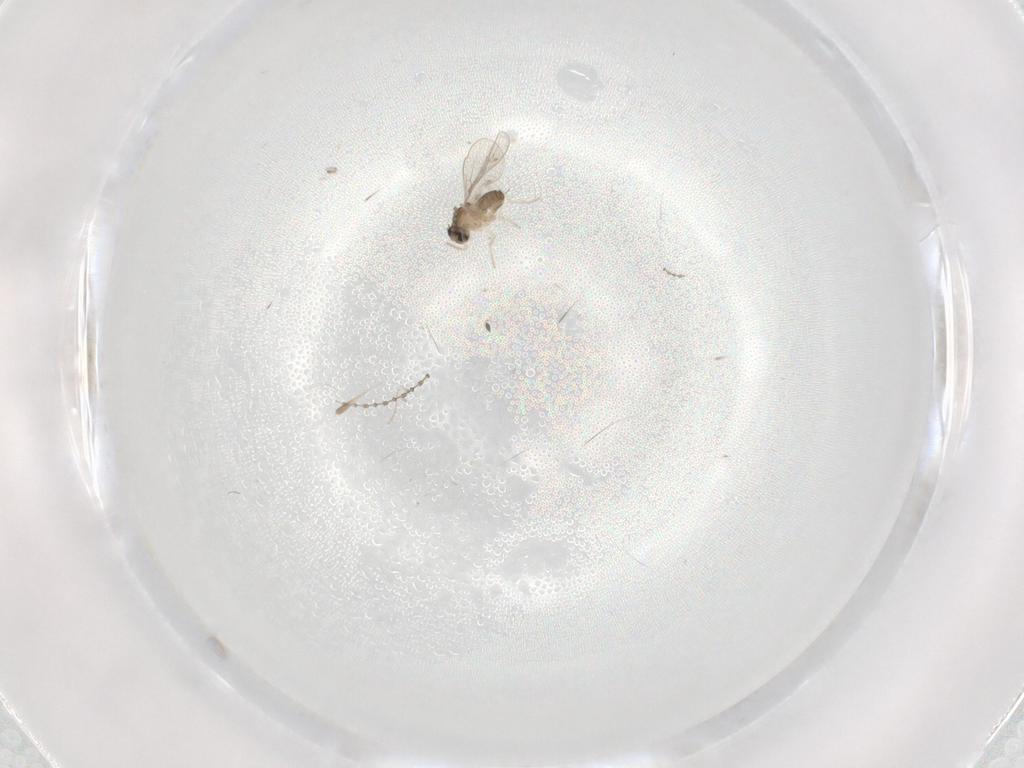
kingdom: Animalia
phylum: Arthropoda
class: Insecta
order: Diptera
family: Cecidomyiidae
